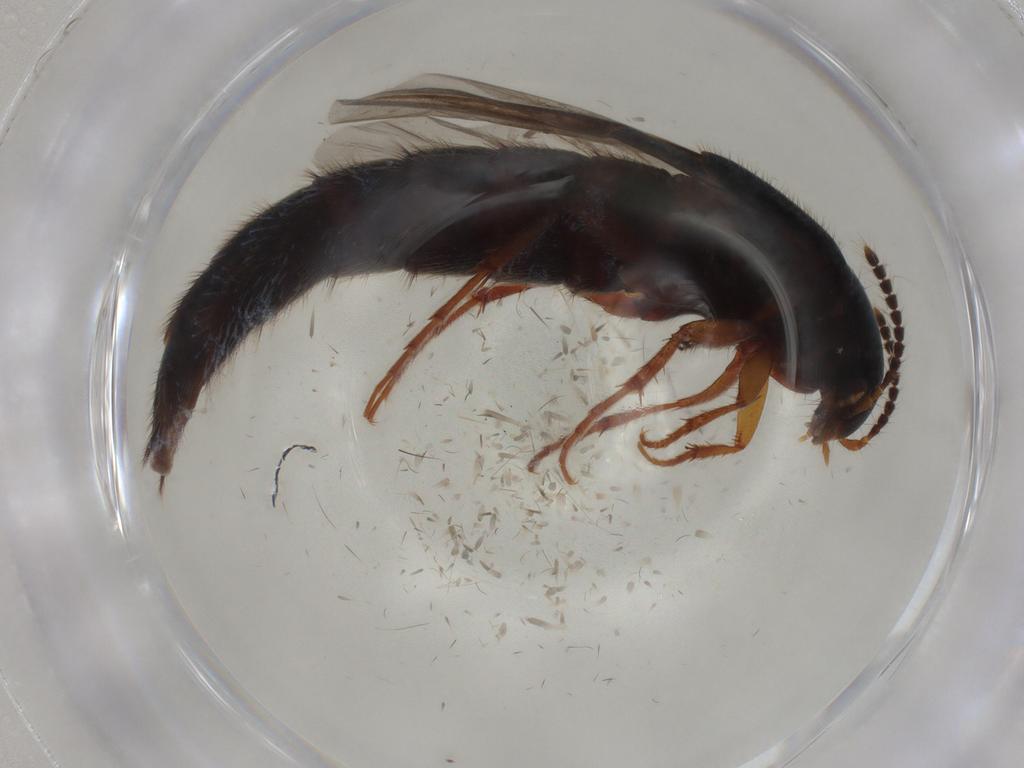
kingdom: Animalia
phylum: Arthropoda
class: Insecta
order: Coleoptera
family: Staphylinidae
